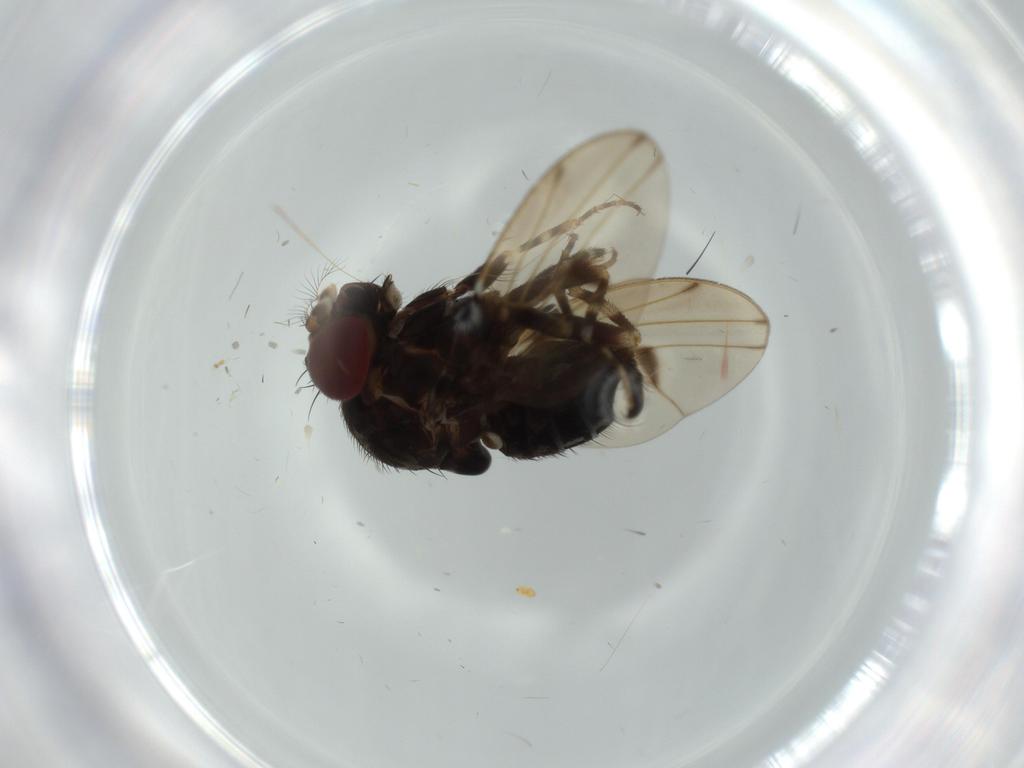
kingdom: Animalia
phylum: Arthropoda
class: Insecta
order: Diptera
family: Drosophilidae
